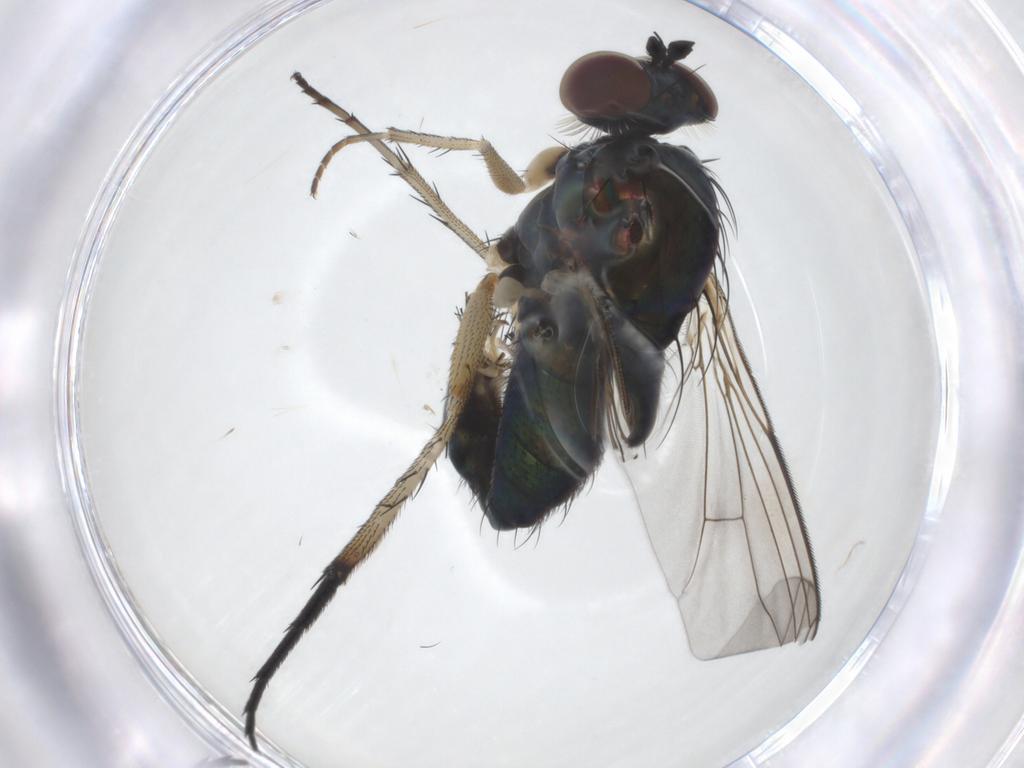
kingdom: Animalia
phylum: Arthropoda
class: Insecta
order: Diptera
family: Dolichopodidae
